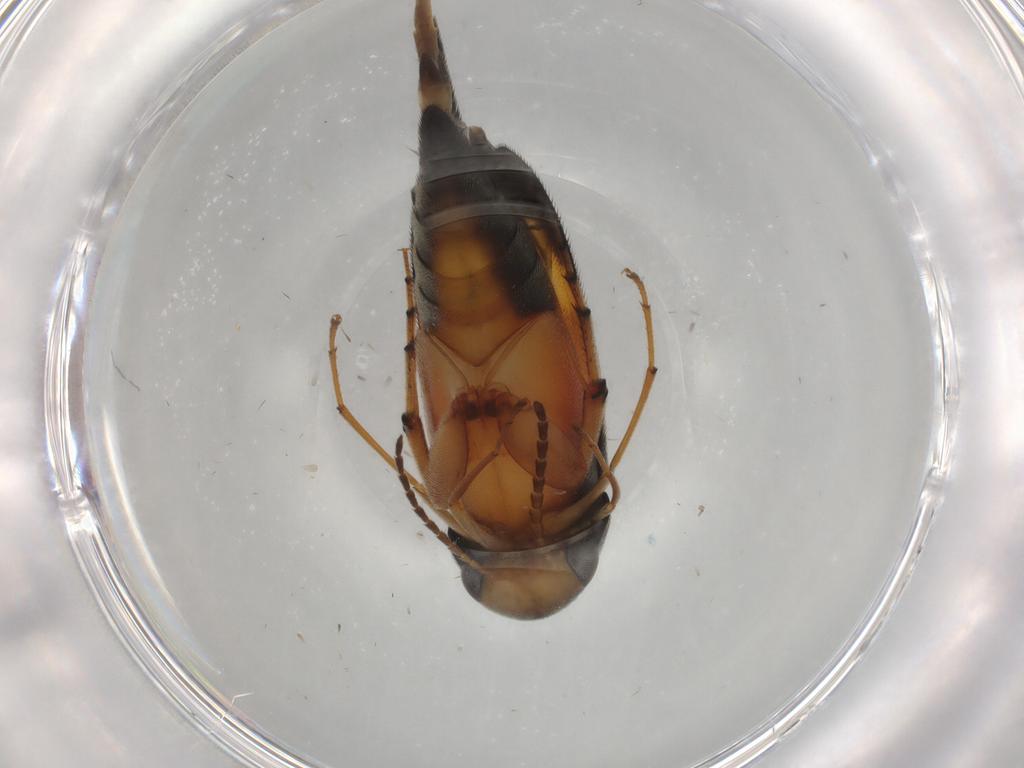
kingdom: Animalia
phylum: Arthropoda
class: Insecta
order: Coleoptera
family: Mordellidae
